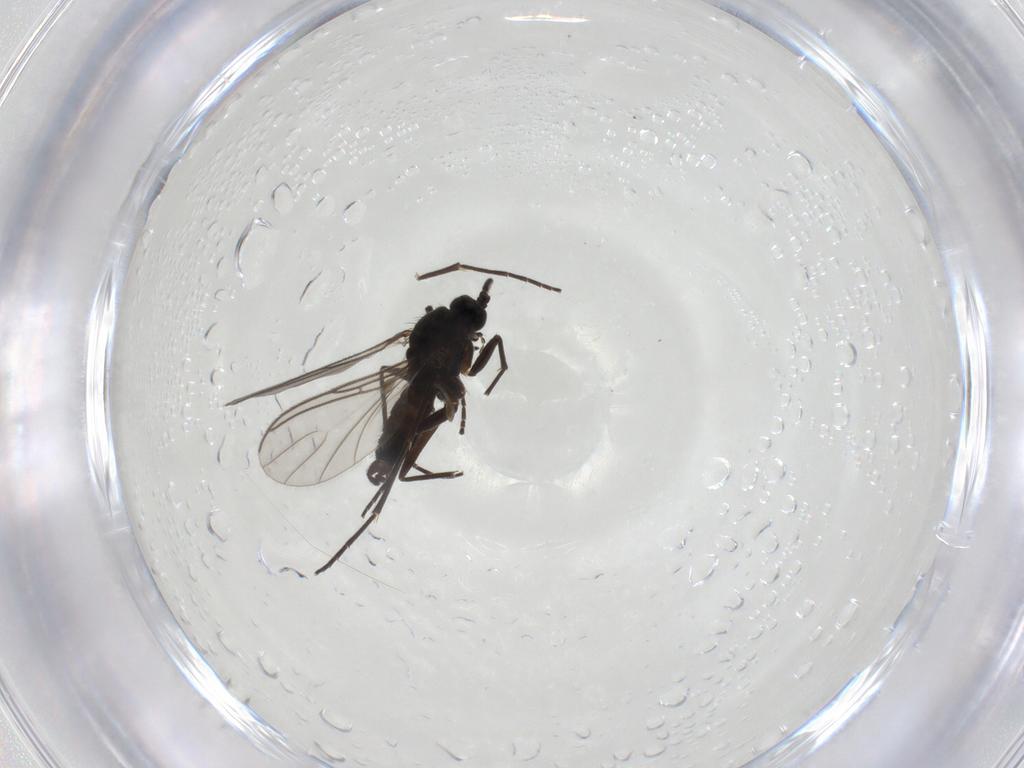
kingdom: Animalia
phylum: Arthropoda
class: Insecta
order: Diptera
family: Sciaridae
